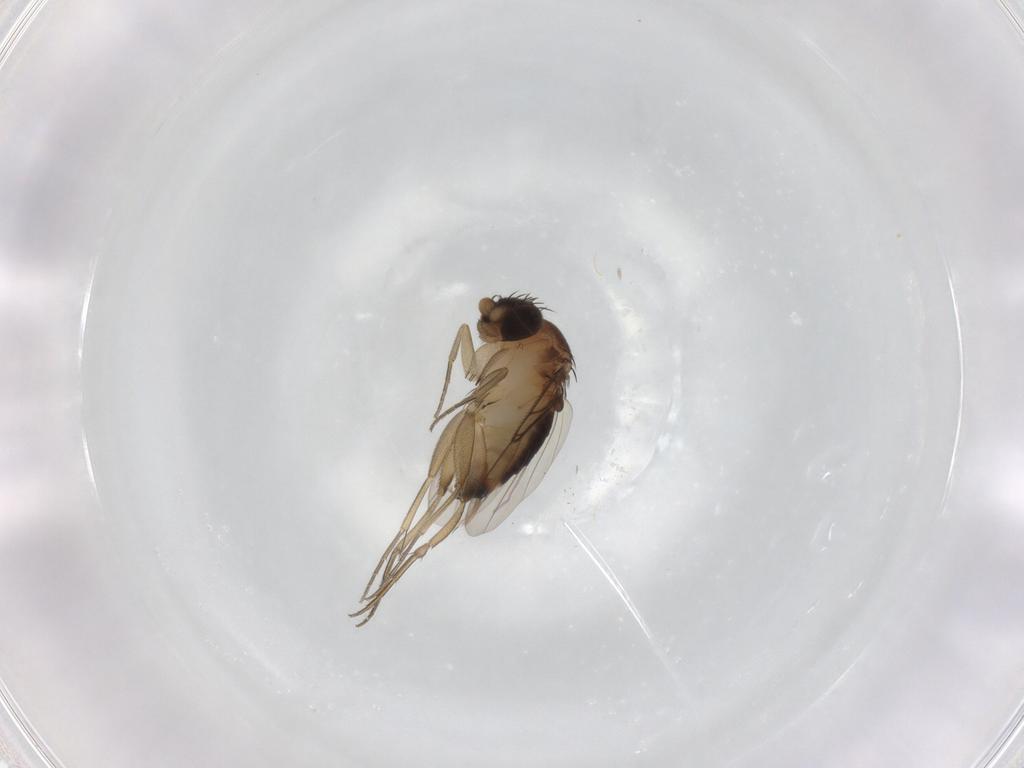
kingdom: Animalia
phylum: Arthropoda
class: Insecta
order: Diptera
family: Phoridae
